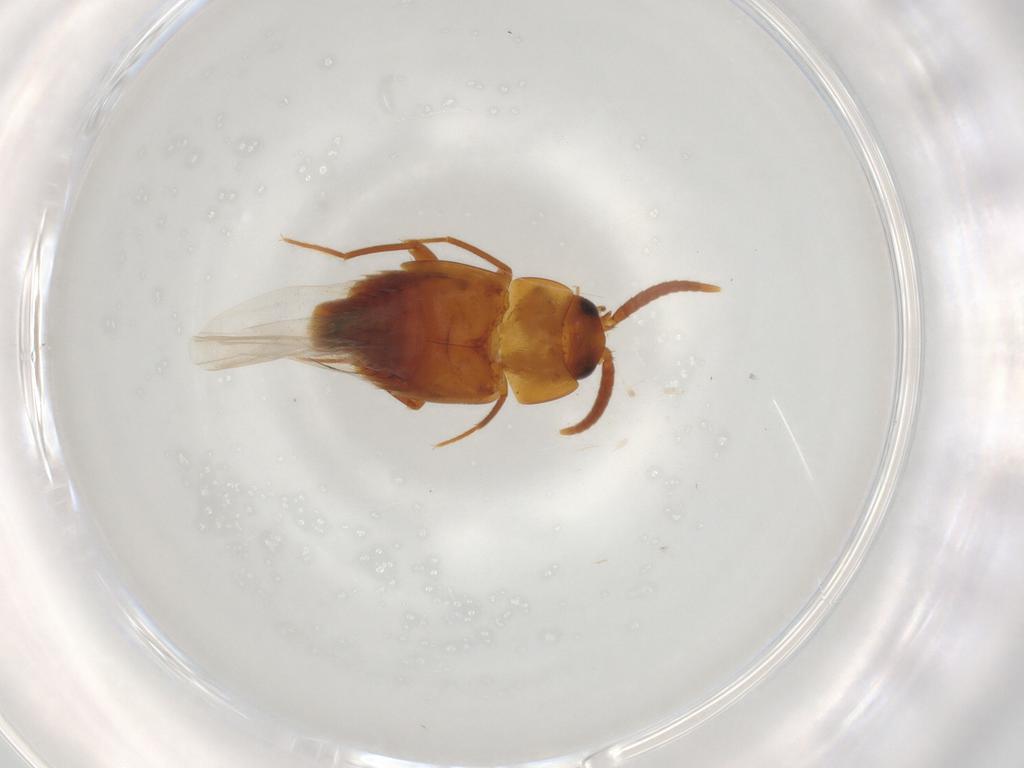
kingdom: Animalia
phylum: Arthropoda
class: Insecta
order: Coleoptera
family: Staphylinidae
